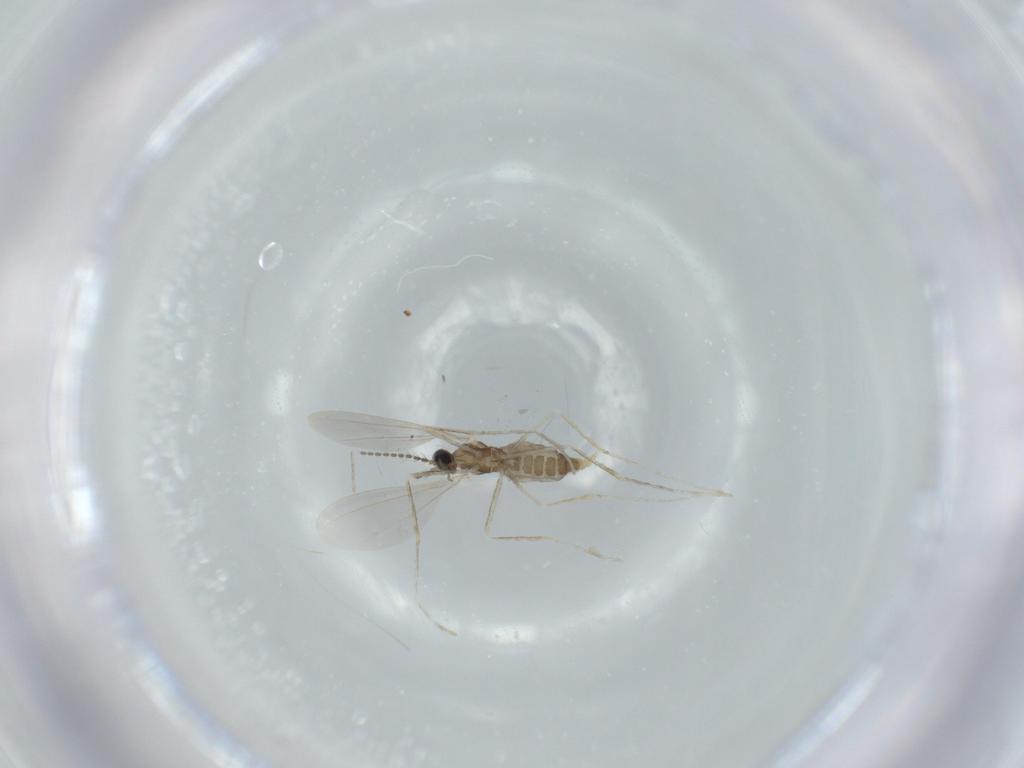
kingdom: Animalia
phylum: Arthropoda
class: Insecta
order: Diptera
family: Cecidomyiidae
